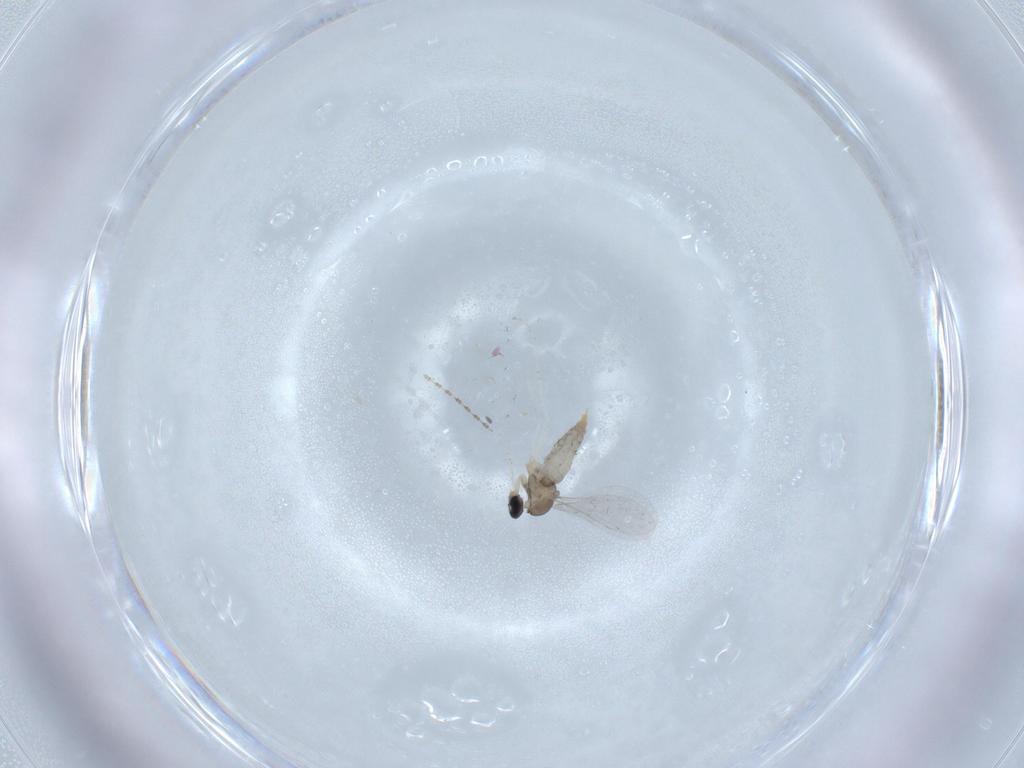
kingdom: Animalia
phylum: Arthropoda
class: Insecta
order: Diptera
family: Cecidomyiidae
